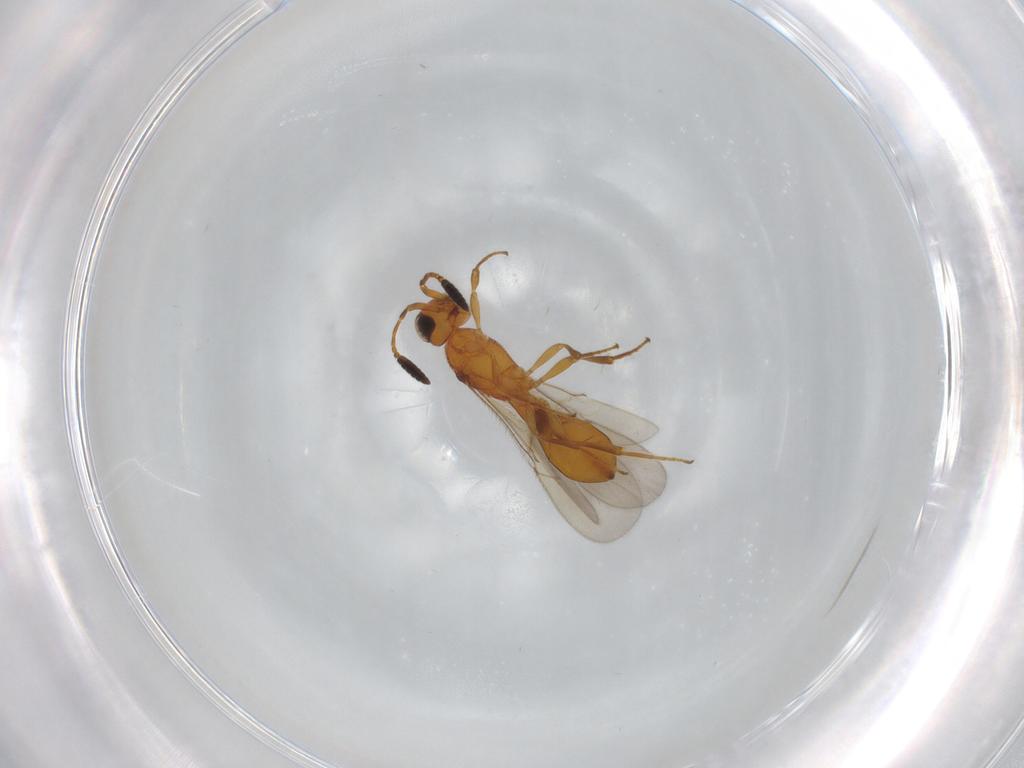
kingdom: Animalia
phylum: Arthropoda
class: Insecta
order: Hymenoptera
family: Scelionidae
